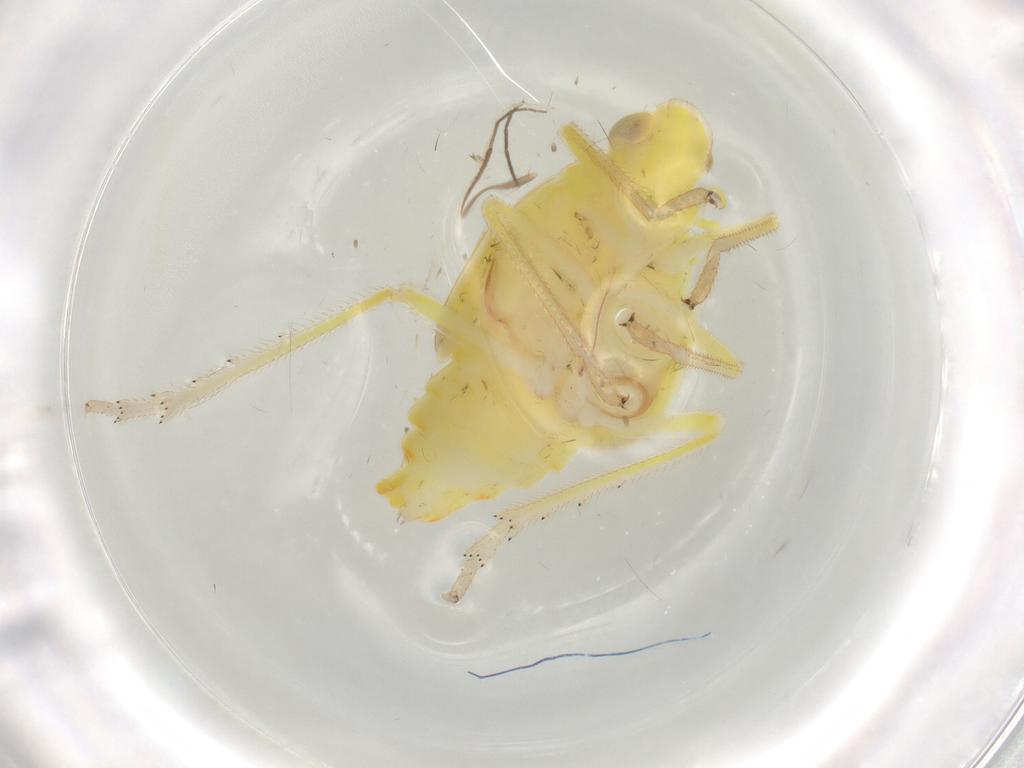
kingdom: Animalia
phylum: Arthropoda
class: Insecta
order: Hemiptera
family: Tropiduchidae
